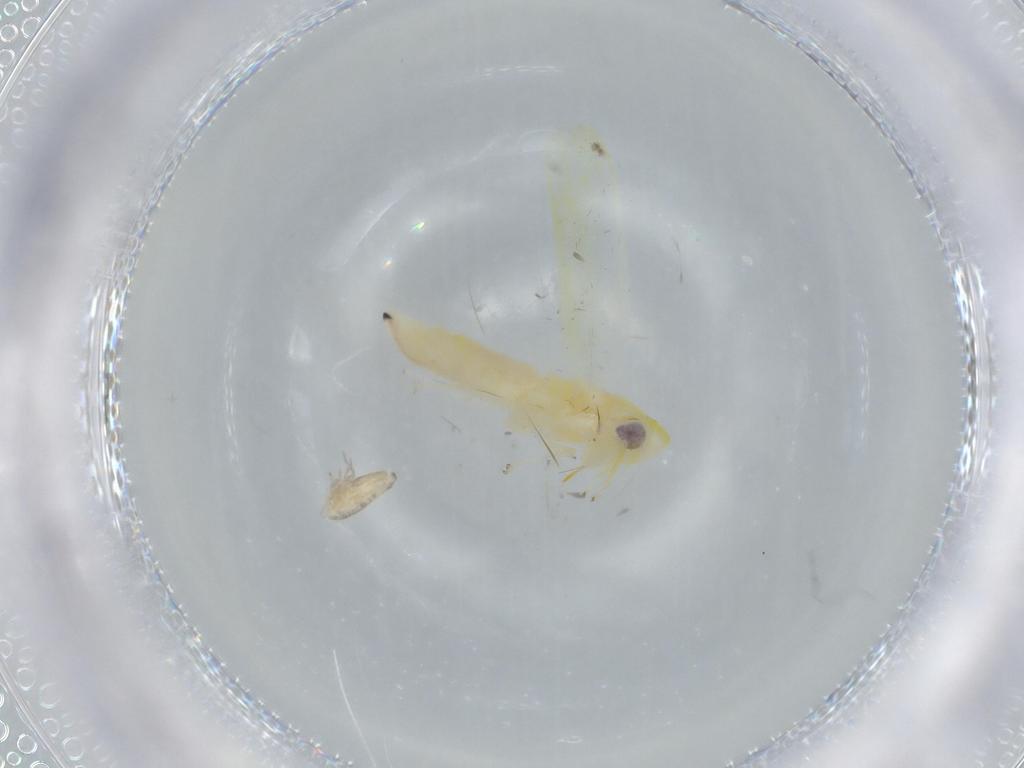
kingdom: Animalia
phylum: Arthropoda
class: Insecta
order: Hemiptera
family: Cicadellidae
